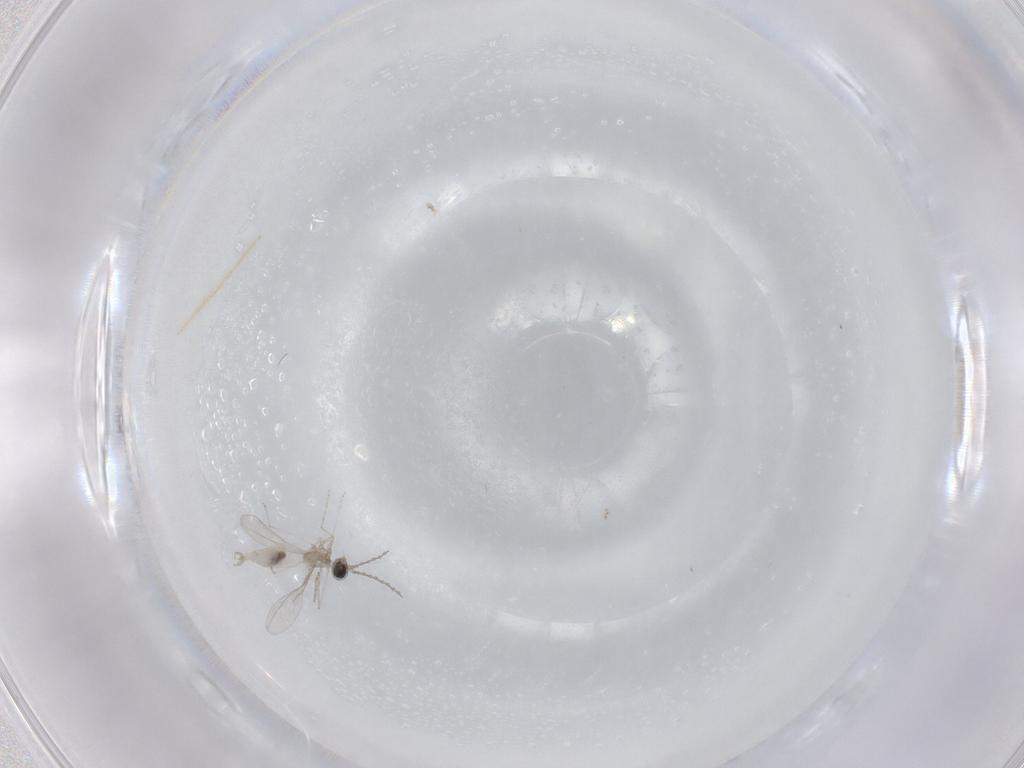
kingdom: Animalia
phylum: Arthropoda
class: Insecta
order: Diptera
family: Cecidomyiidae
